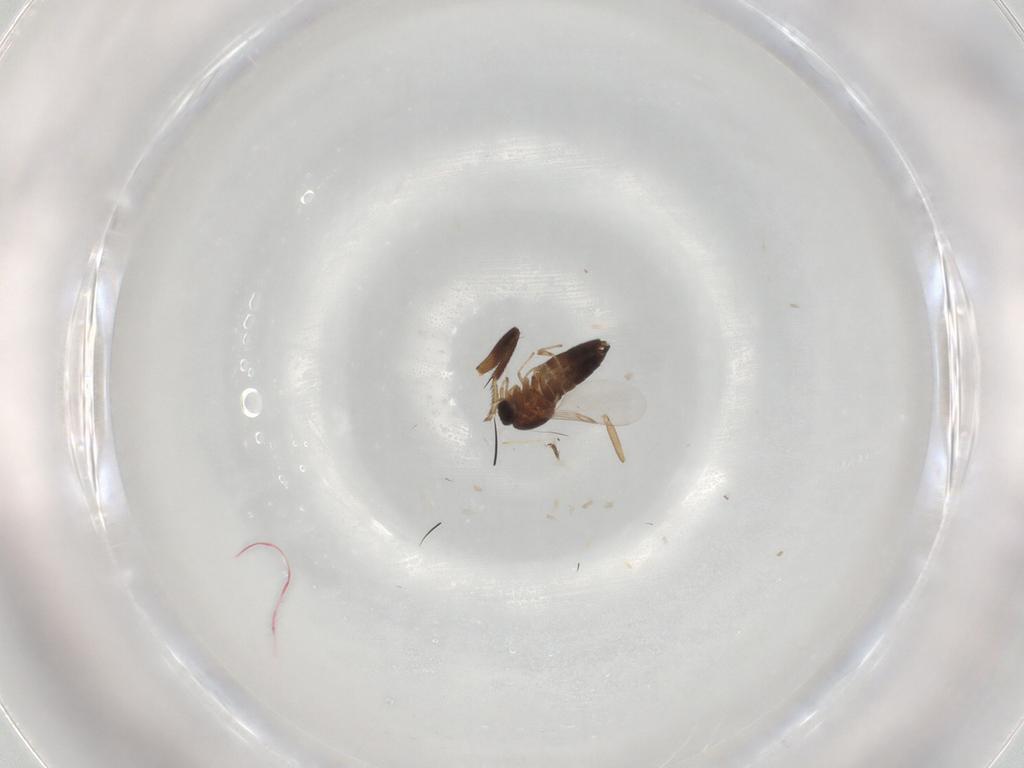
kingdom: Animalia
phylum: Arthropoda
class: Insecta
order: Diptera
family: Scatopsidae
